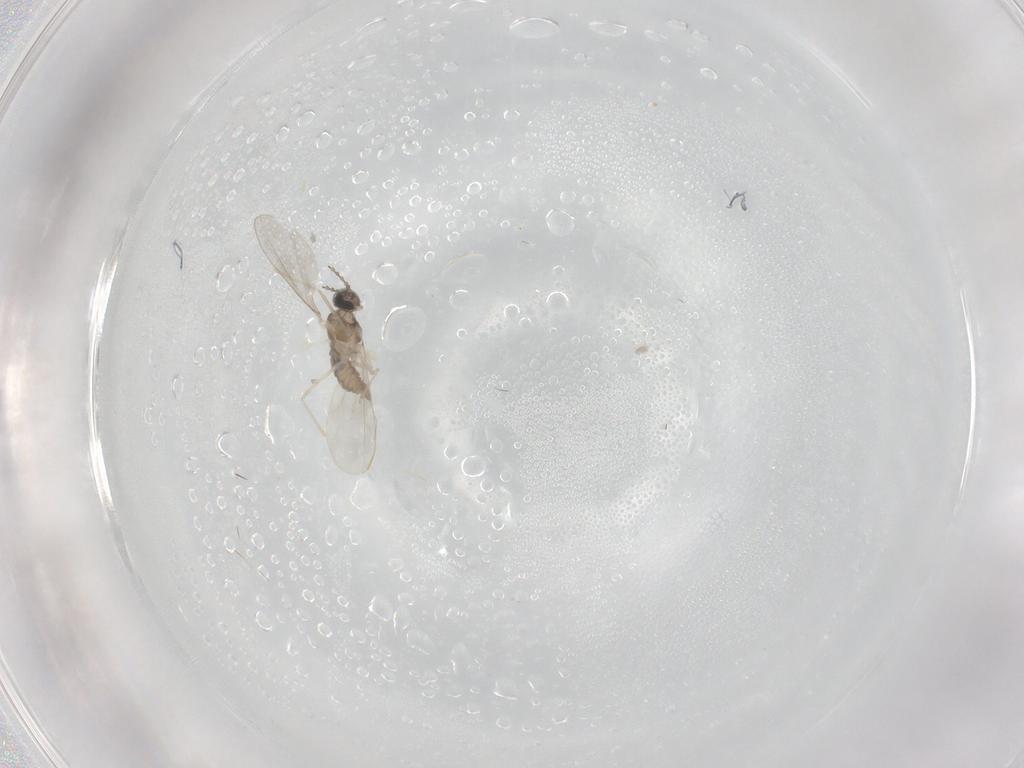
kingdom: Animalia
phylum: Arthropoda
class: Insecta
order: Diptera
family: Cecidomyiidae
